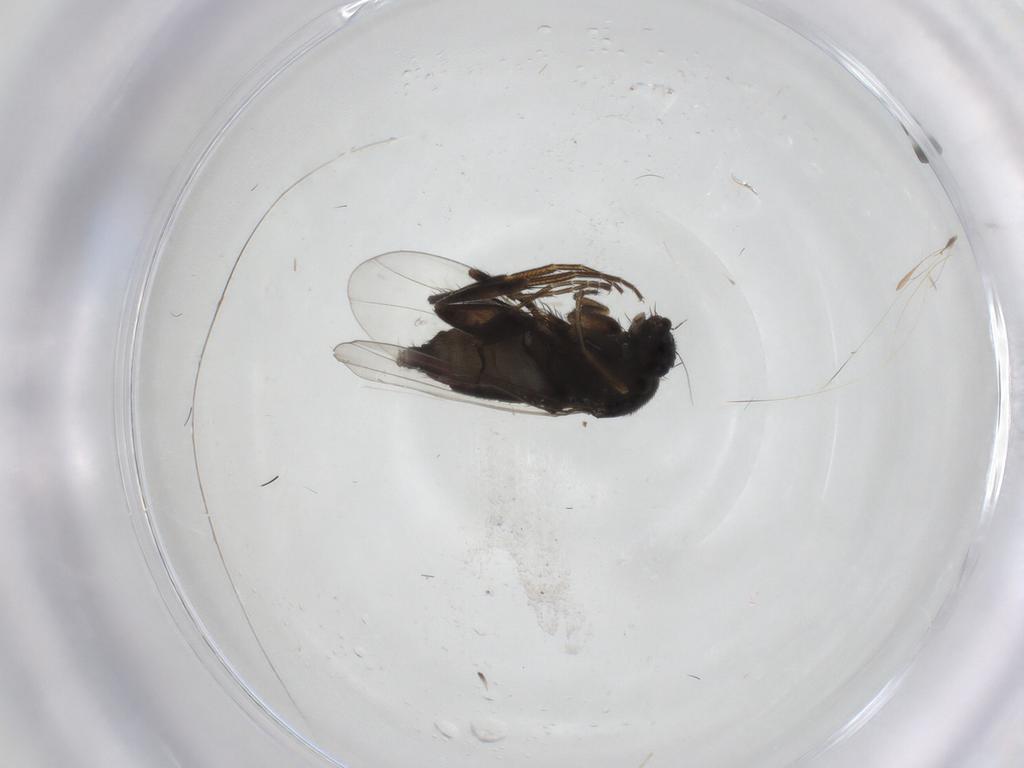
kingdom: Animalia
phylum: Arthropoda
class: Insecta
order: Diptera
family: Phoridae
